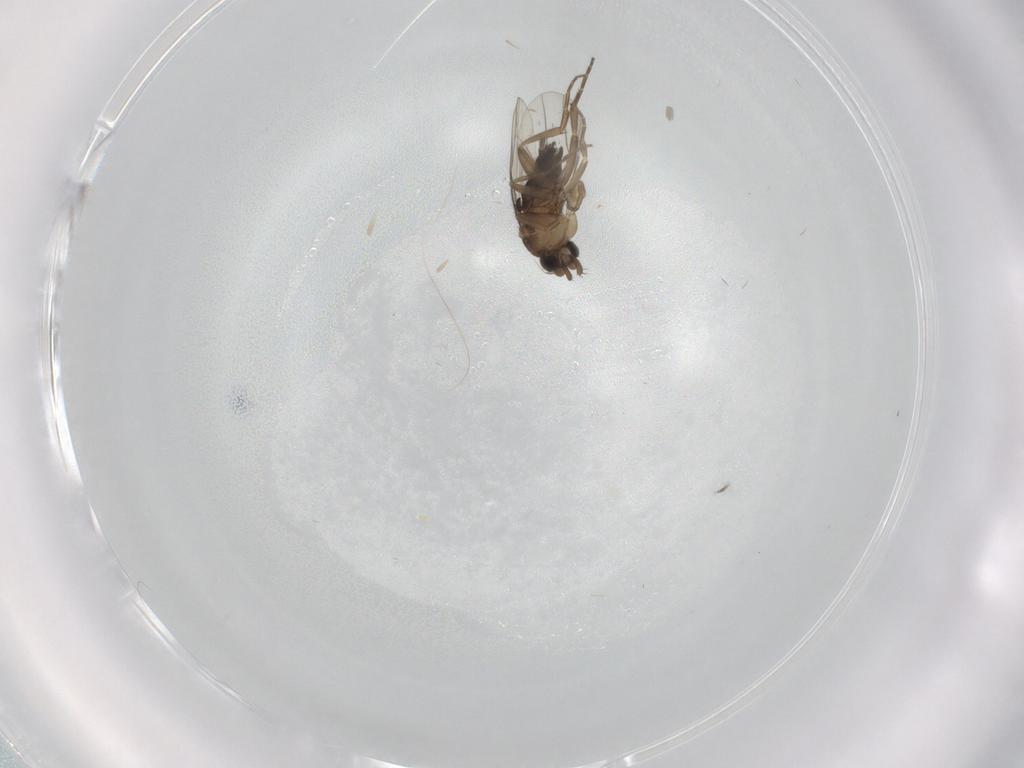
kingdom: Animalia
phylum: Arthropoda
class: Insecta
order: Diptera
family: Phoridae
